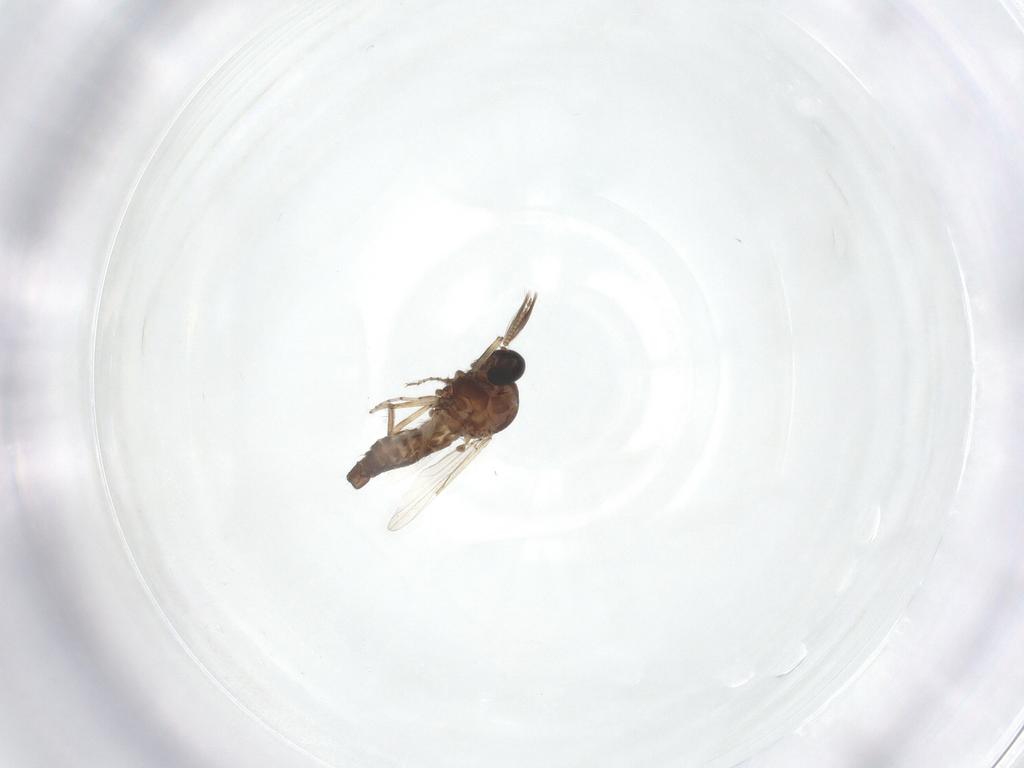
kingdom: Animalia
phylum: Arthropoda
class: Insecta
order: Diptera
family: Ceratopogonidae
